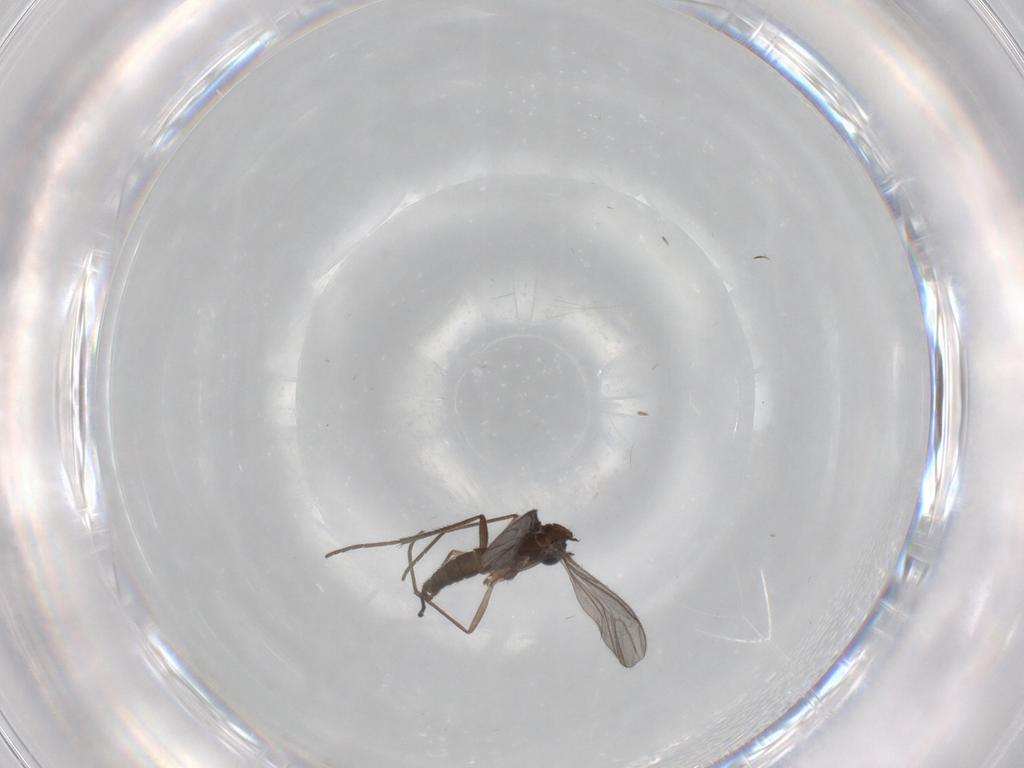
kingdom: Animalia
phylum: Arthropoda
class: Insecta
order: Diptera
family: Sciaridae
